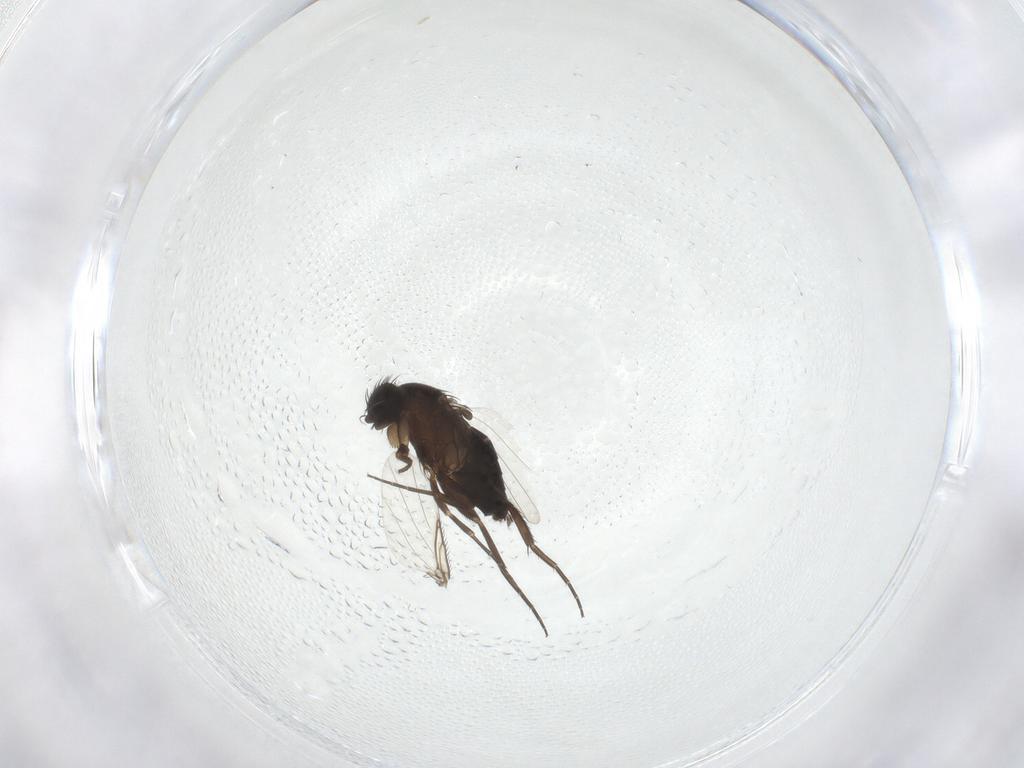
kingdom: Animalia
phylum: Arthropoda
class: Insecta
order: Diptera
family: Phoridae
